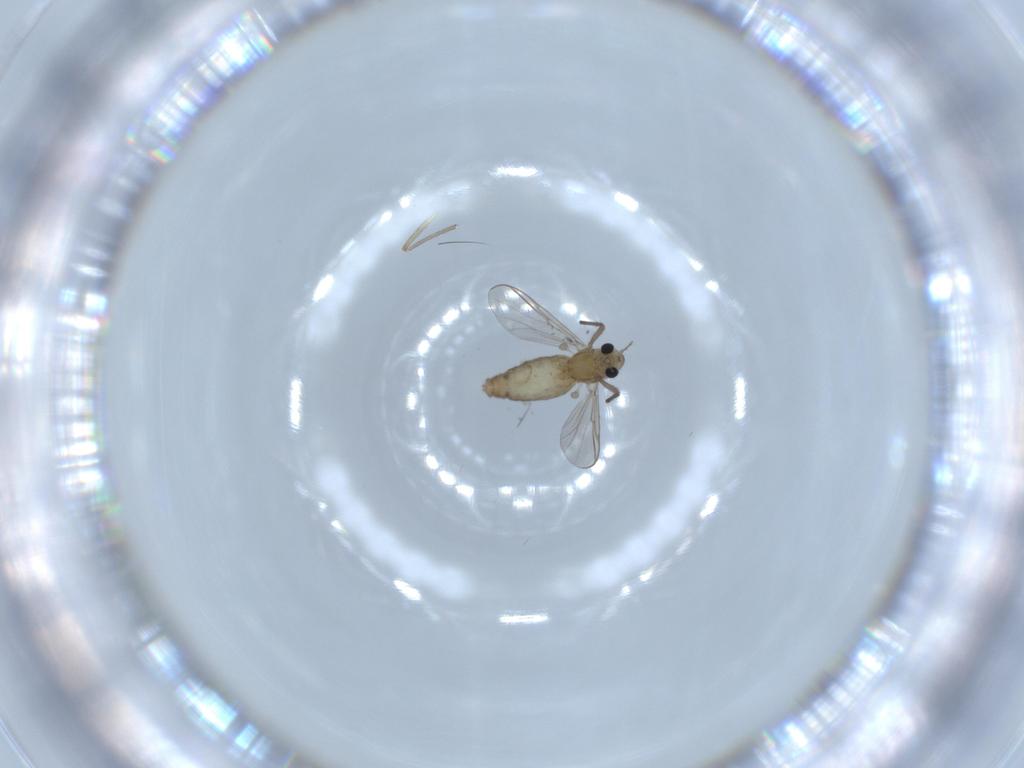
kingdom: Animalia
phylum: Arthropoda
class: Insecta
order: Diptera
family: Chironomidae
